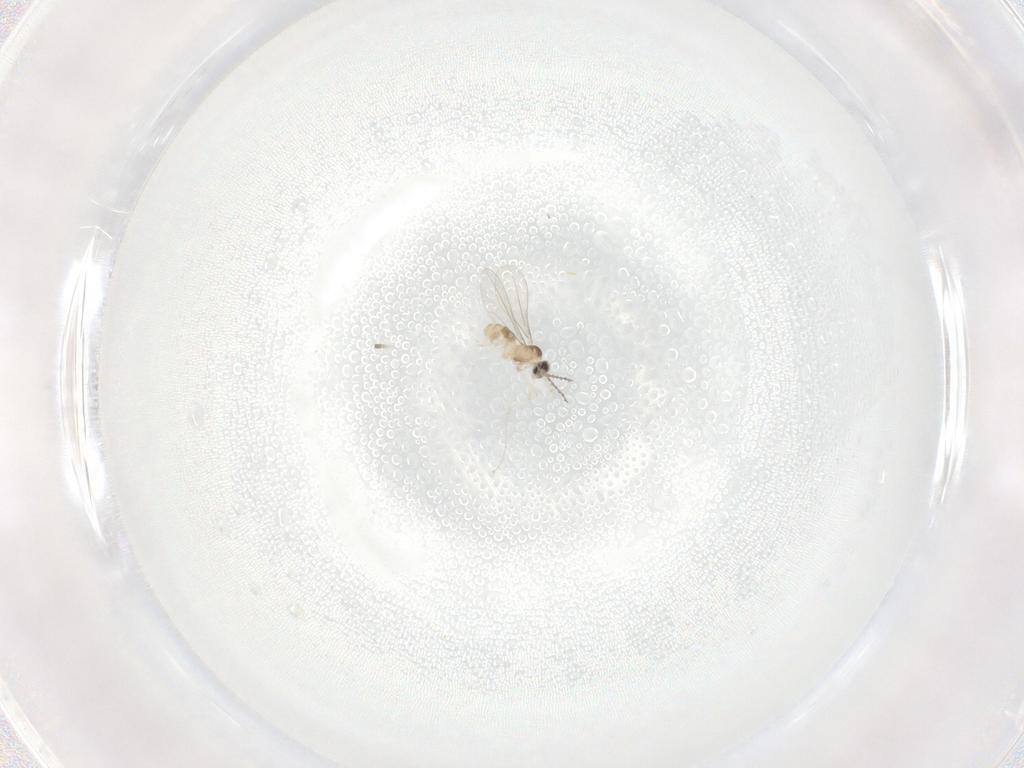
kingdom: Animalia
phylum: Arthropoda
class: Insecta
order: Diptera
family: Cecidomyiidae
